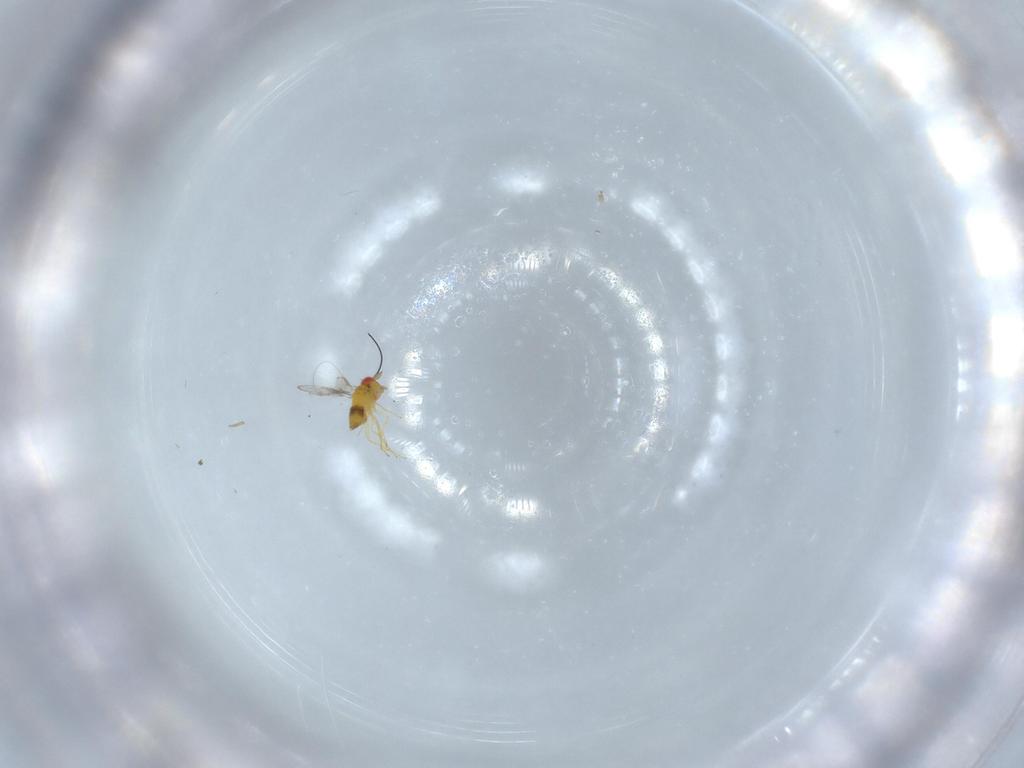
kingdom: Animalia
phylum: Arthropoda
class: Insecta
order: Hymenoptera
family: Trichogrammatidae
